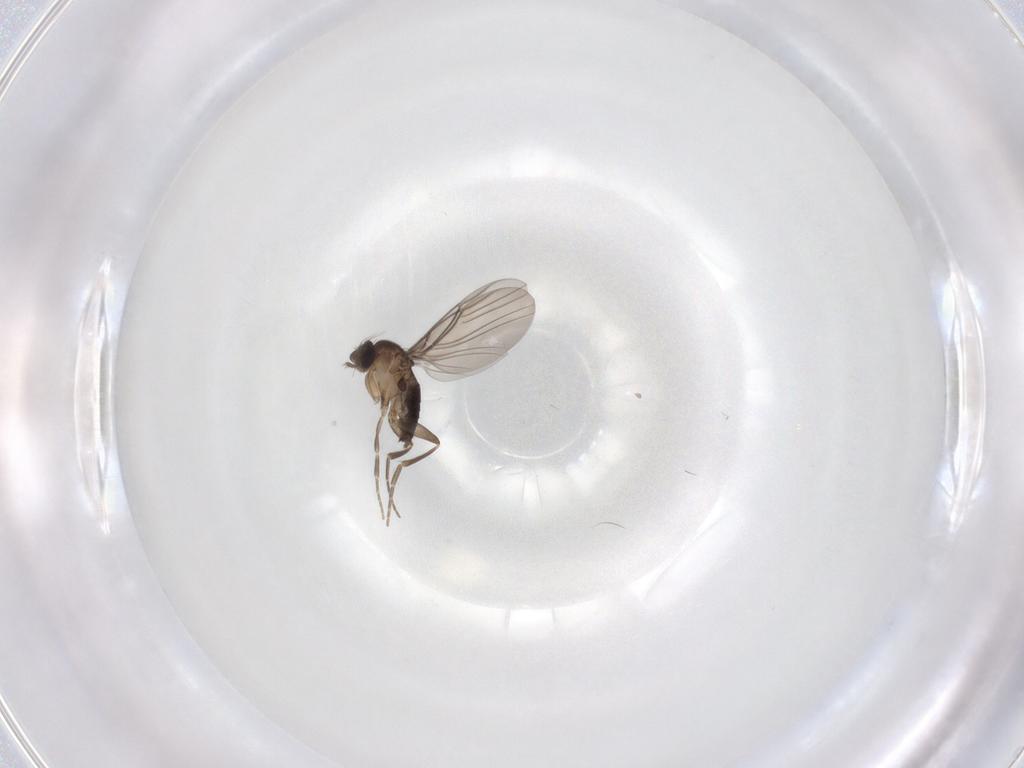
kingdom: Animalia
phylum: Arthropoda
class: Insecta
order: Diptera
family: Phoridae
